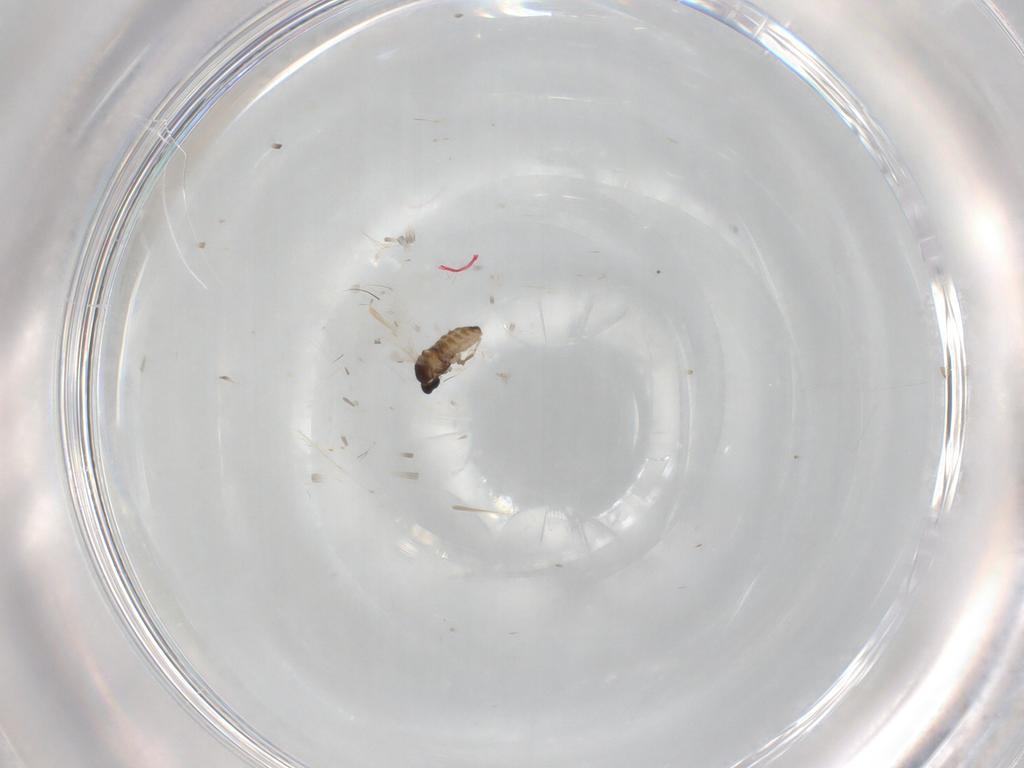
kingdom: Animalia
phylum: Arthropoda
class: Insecta
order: Diptera
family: Cecidomyiidae
